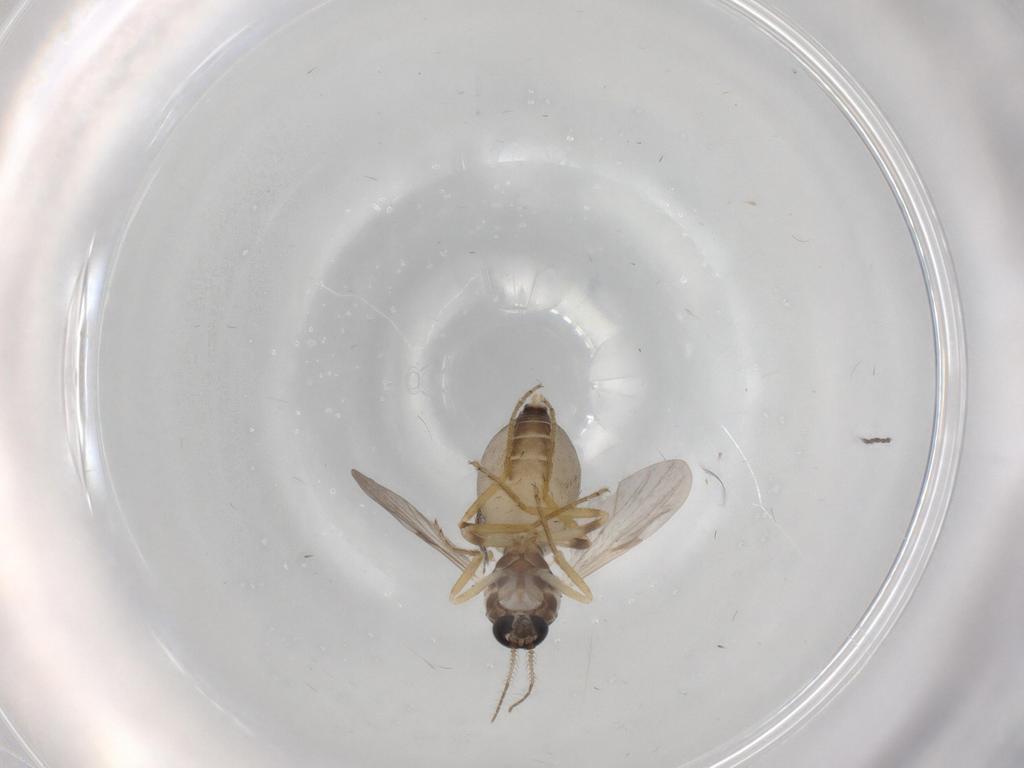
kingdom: Animalia
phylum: Arthropoda
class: Insecta
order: Diptera
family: Ceratopogonidae
